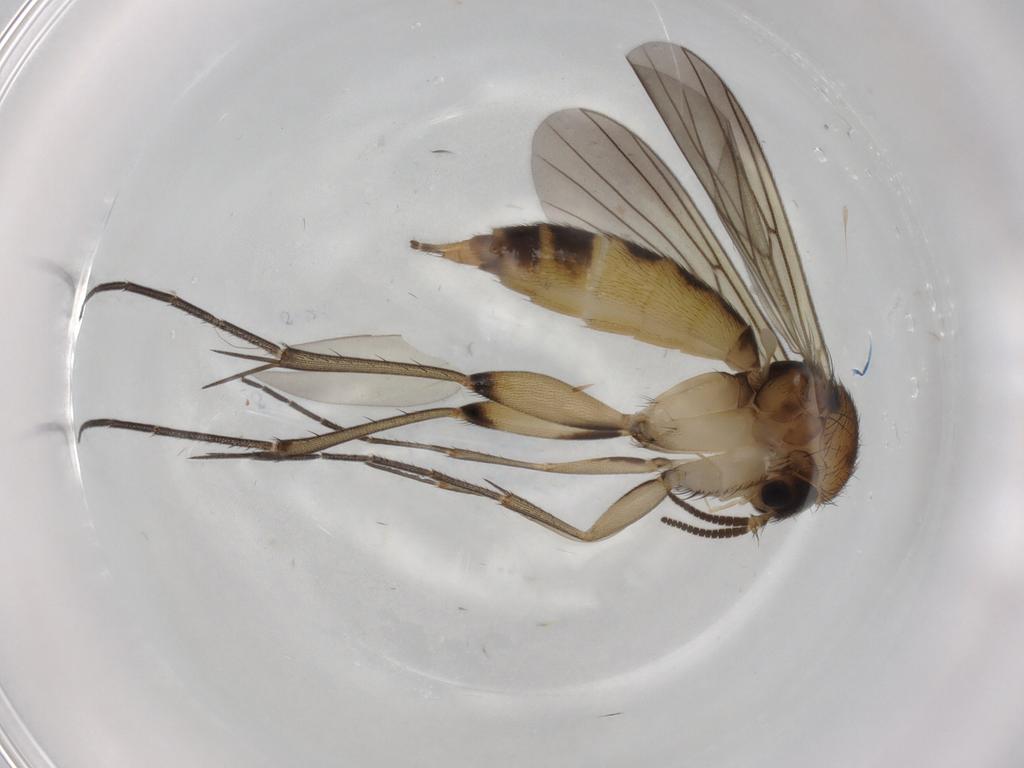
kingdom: Animalia
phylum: Arthropoda
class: Insecta
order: Diptera
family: Mycetophilidae
